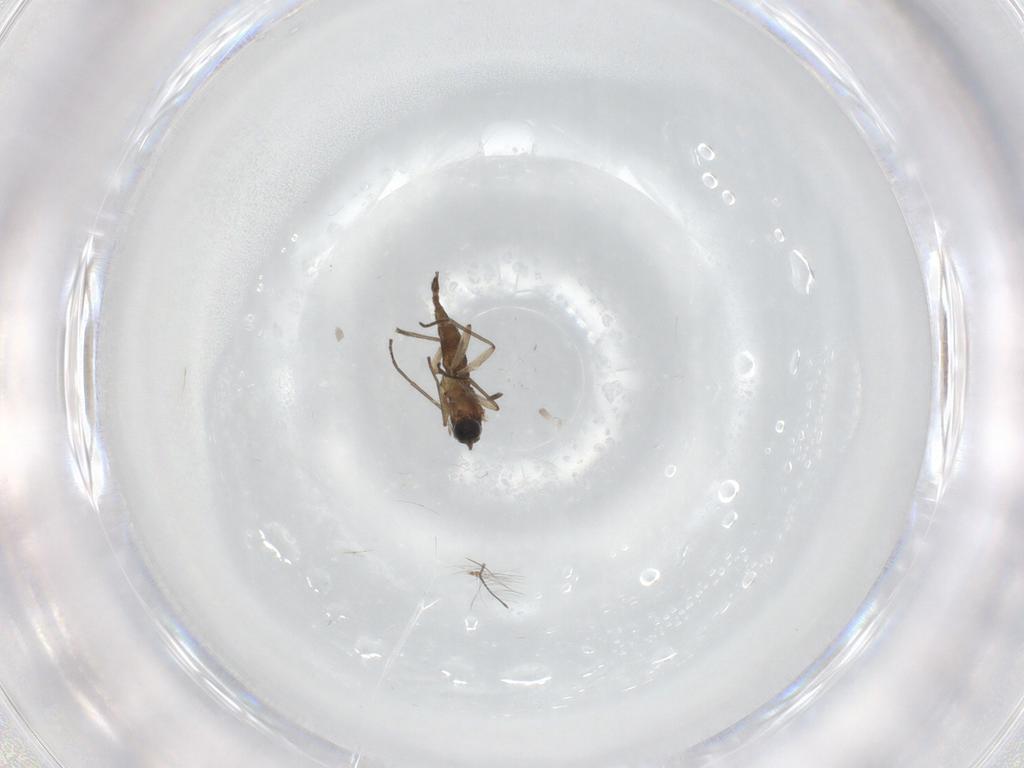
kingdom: Animalia
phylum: Arthropoda
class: Insecta
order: Diptera
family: Sciaridae
